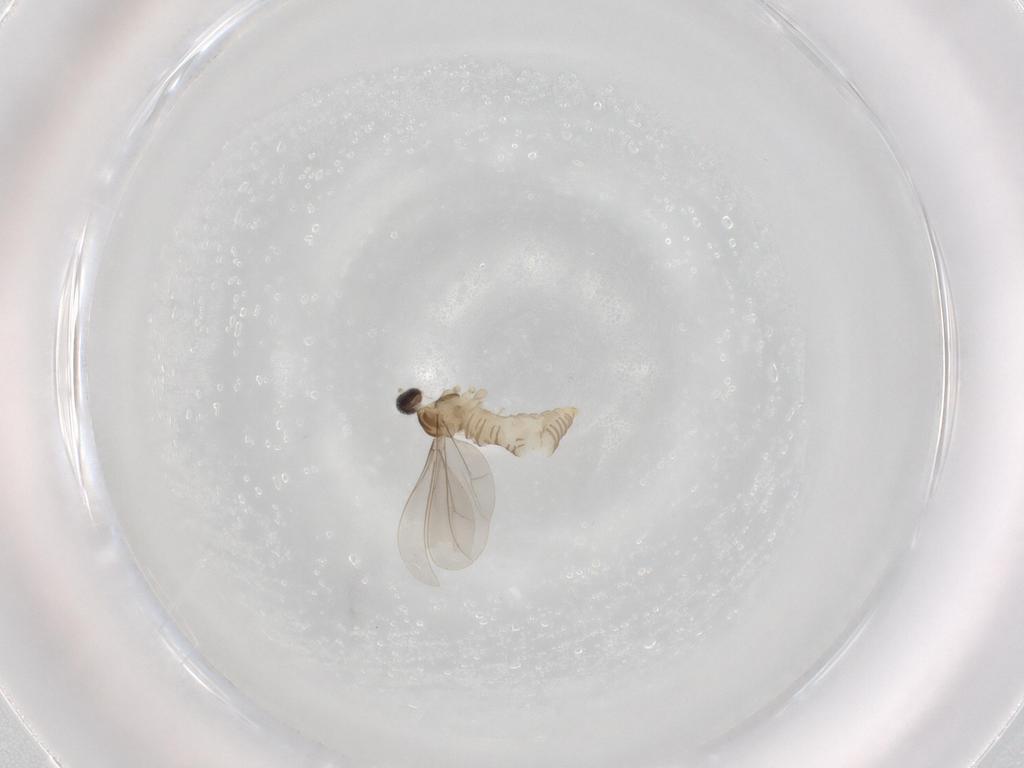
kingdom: Animalia
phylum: Arthropoda
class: Insecta
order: Diptera
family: Cecidomyiidae
